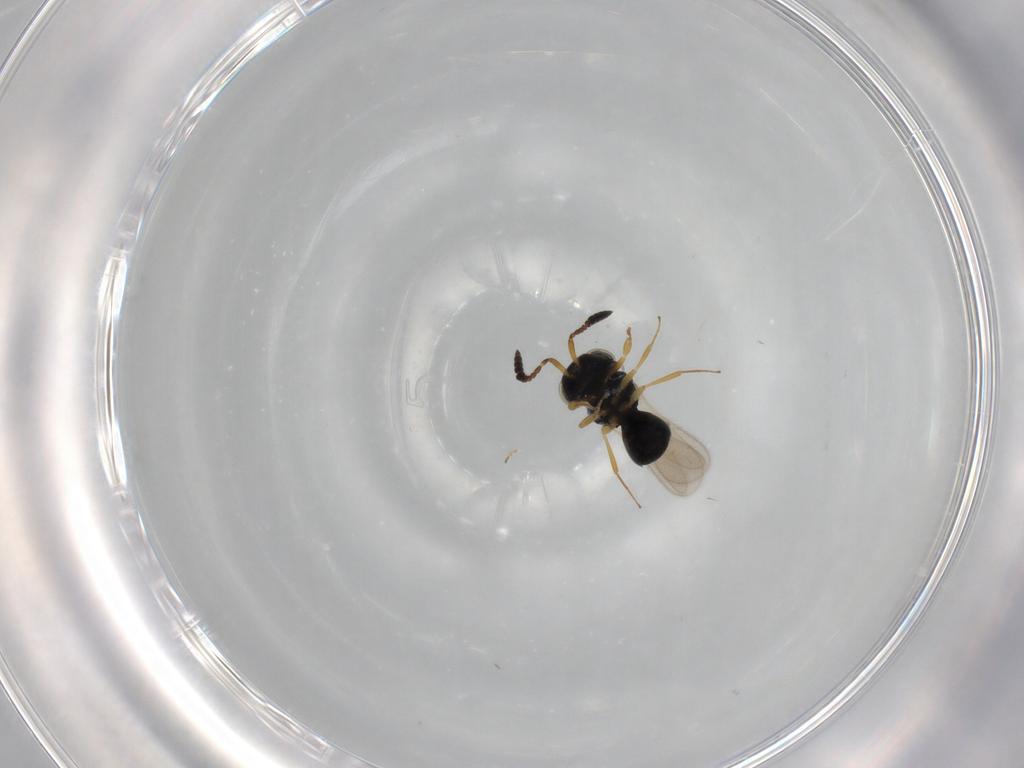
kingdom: Animalia
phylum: Arthropoda
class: Insecta
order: Hymenoptera
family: Scelionidae
